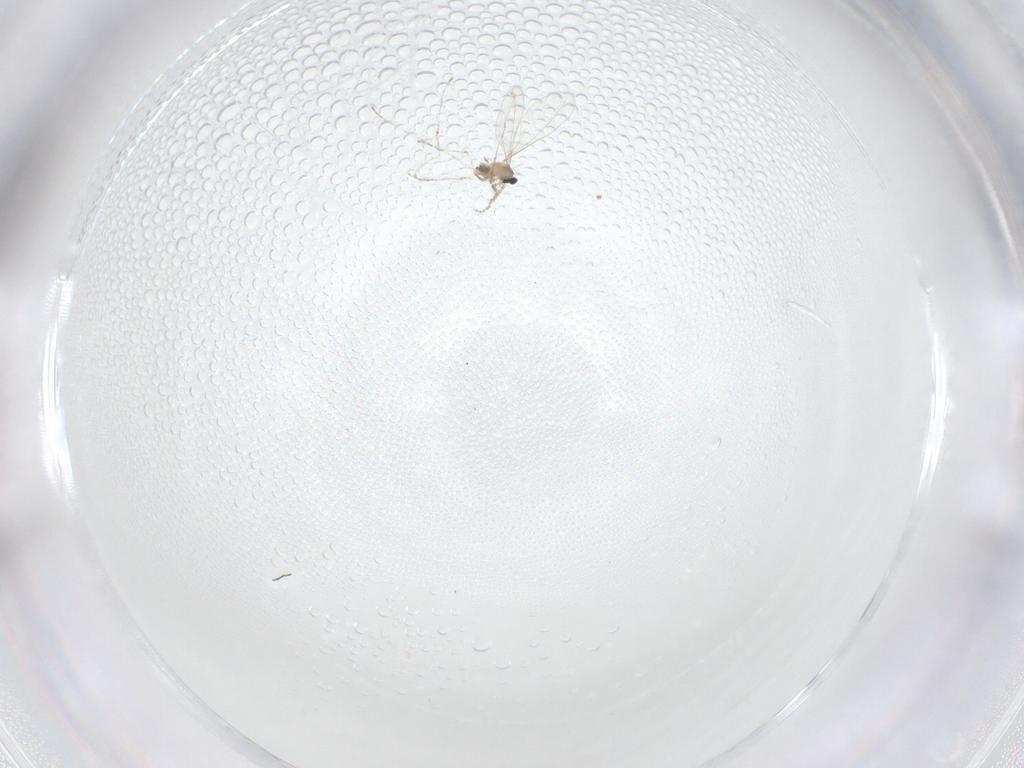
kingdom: Animalia
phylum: Arthropoda
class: Insecta
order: Diptera
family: Cecidomyiidae
